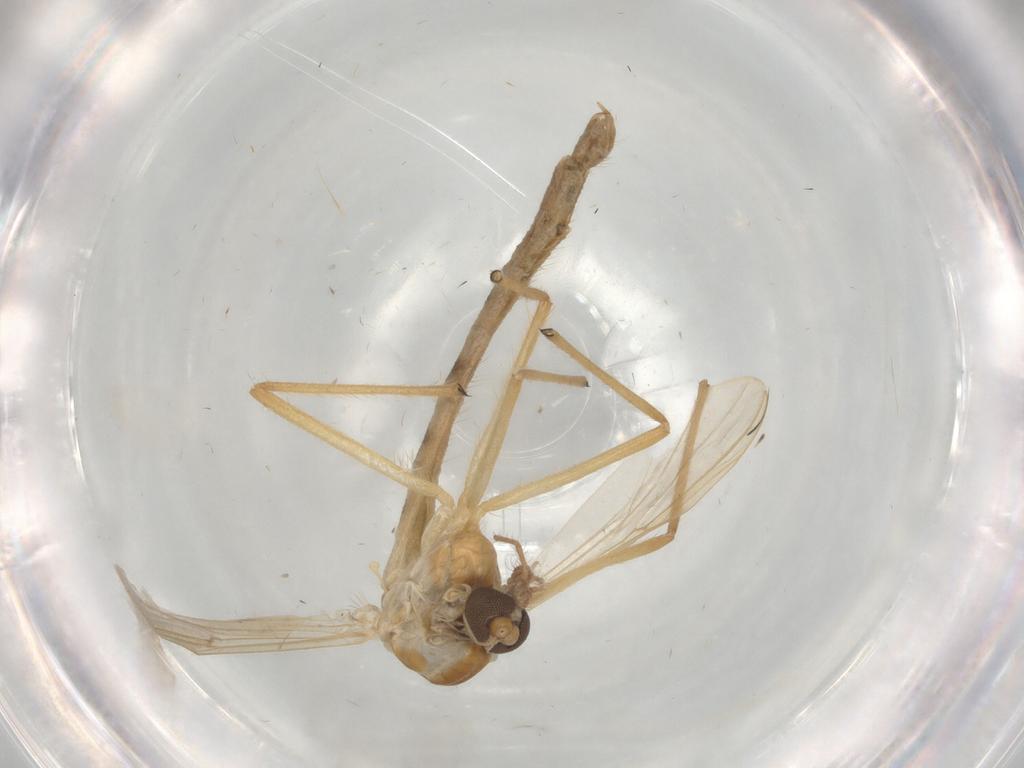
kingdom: Animalia
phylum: Arthropoda
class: Insecta
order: Diptera
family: Sciaridae
